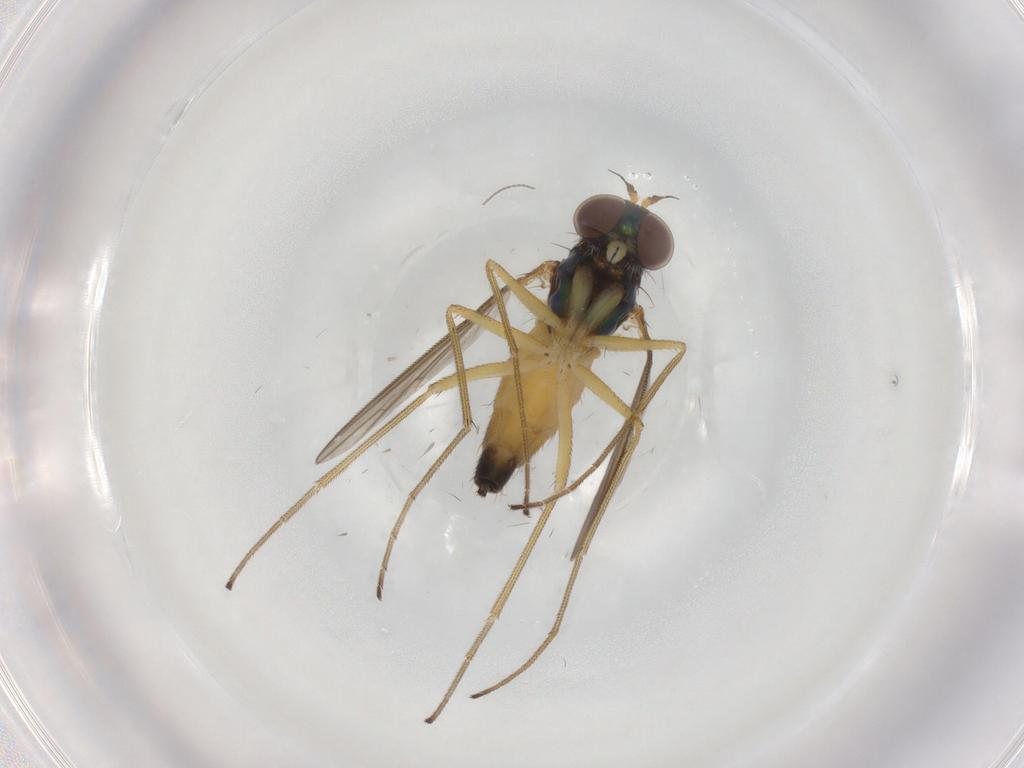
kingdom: Animalia
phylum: Arthropoda
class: Insecta
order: Diptera
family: Dolichopodidae
